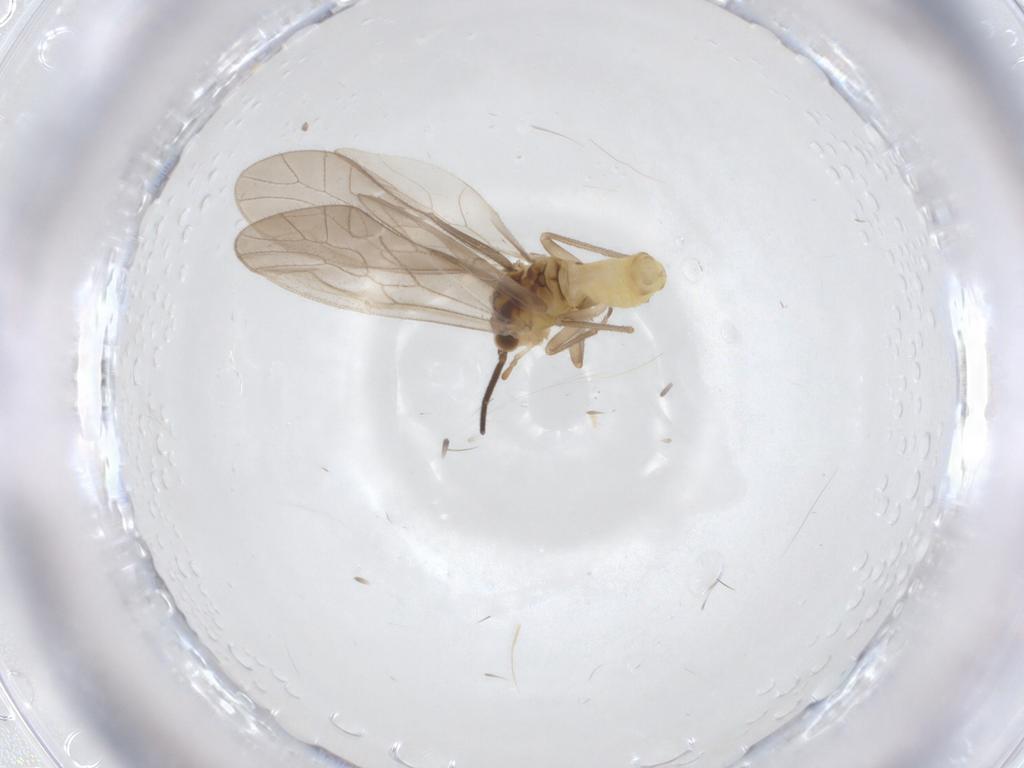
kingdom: Animalia
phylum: Arthropoda
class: Insecta
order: Psocodea
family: Caeciliusidae
